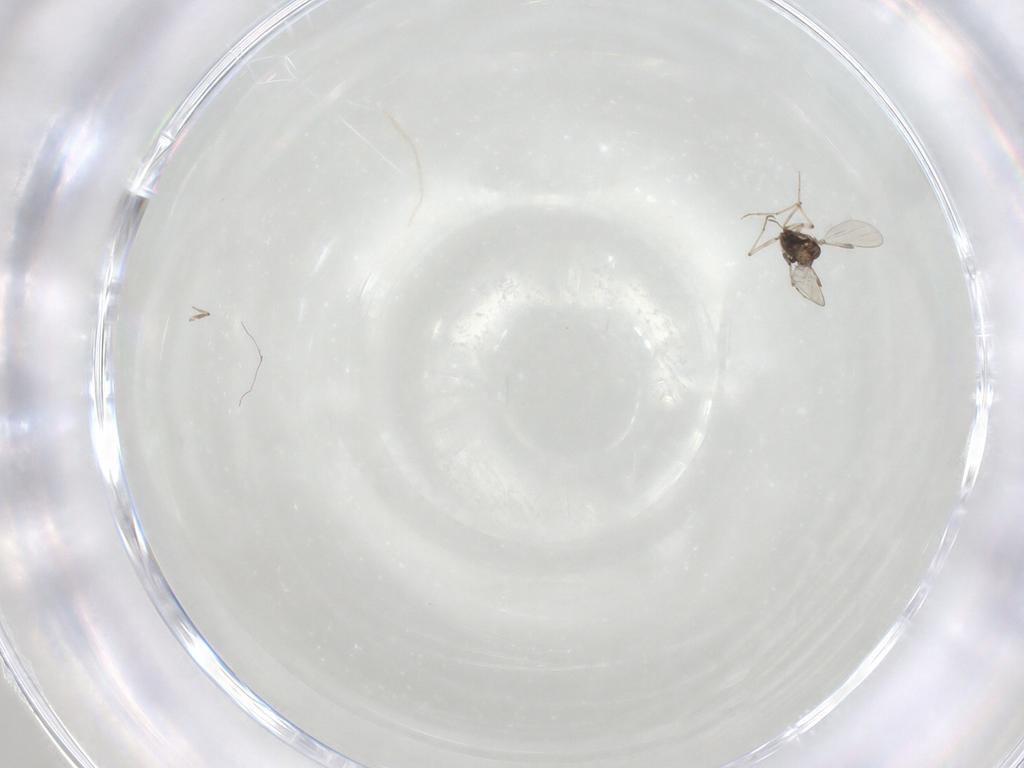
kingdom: Animalia
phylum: Arthropoda
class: Insecta
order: Diptera
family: Chironomidae
